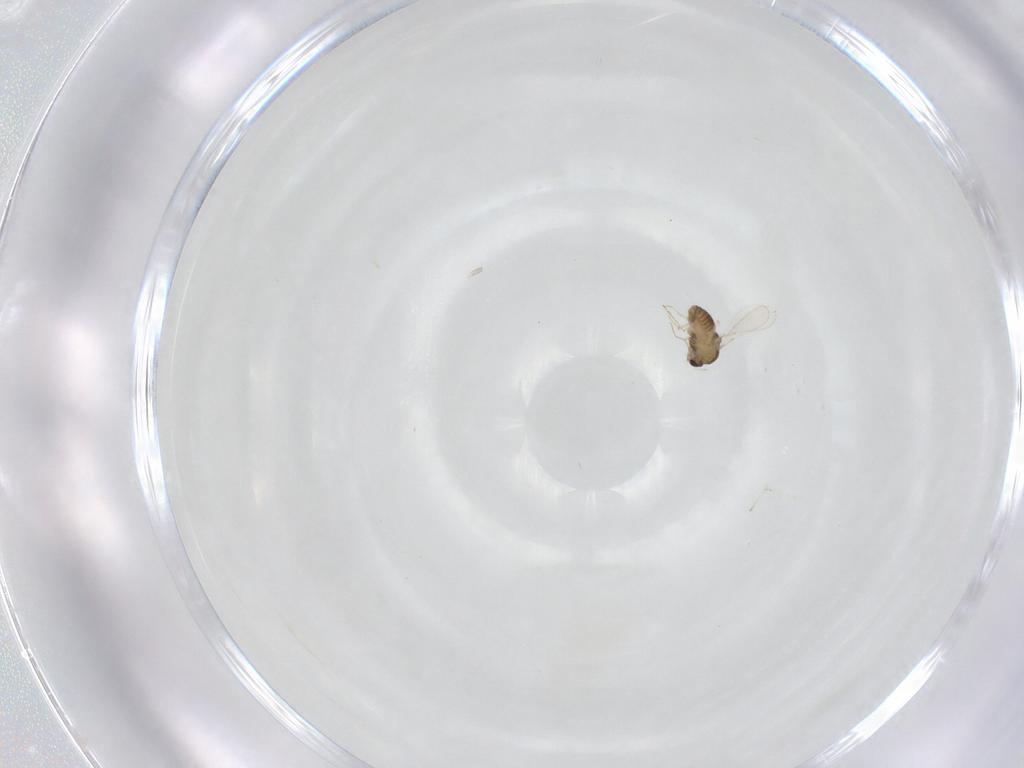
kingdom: Animalia
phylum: Arthropoda
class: Insecta
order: Diptera
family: Chironomidae
